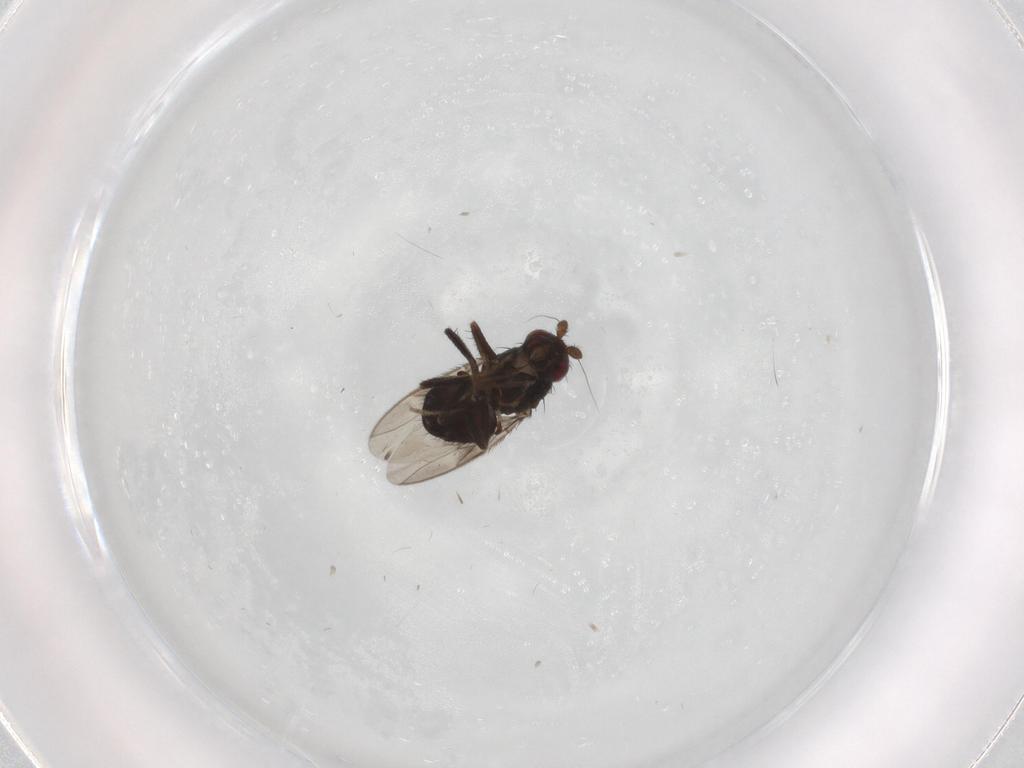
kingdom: Animalia
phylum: Arthropoda
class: Insecta
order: Diptera
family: Sphaeroceridae
